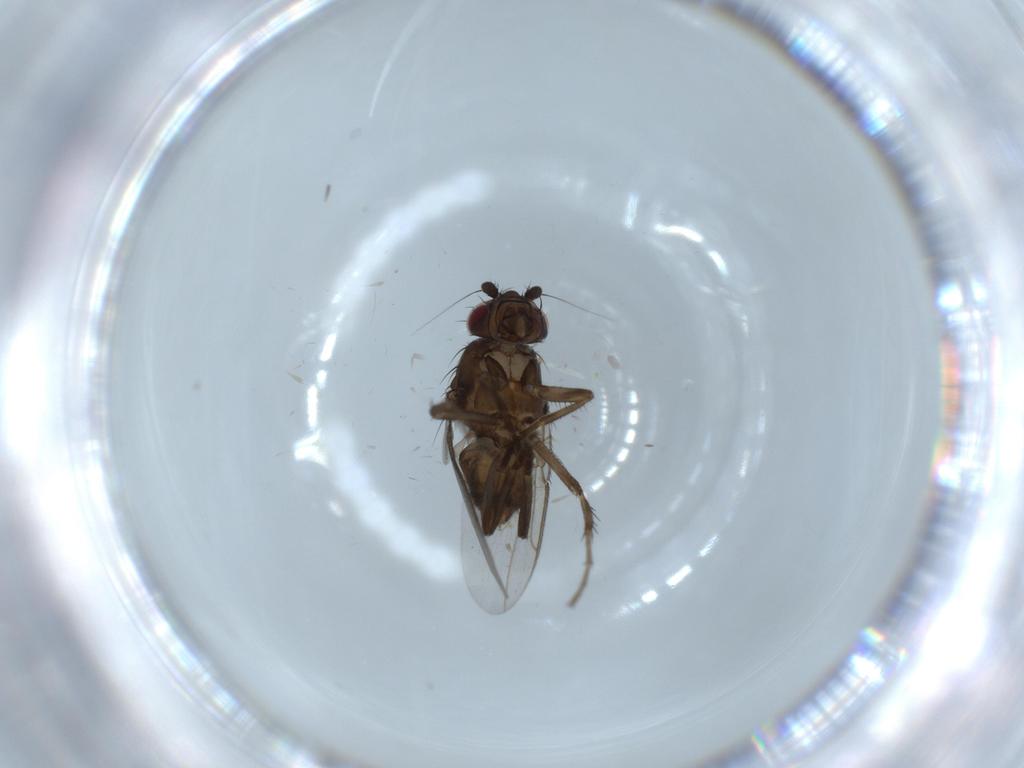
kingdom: Animalia
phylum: Arthropoda
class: Insecta
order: Diptera
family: Sphaeroceridae
